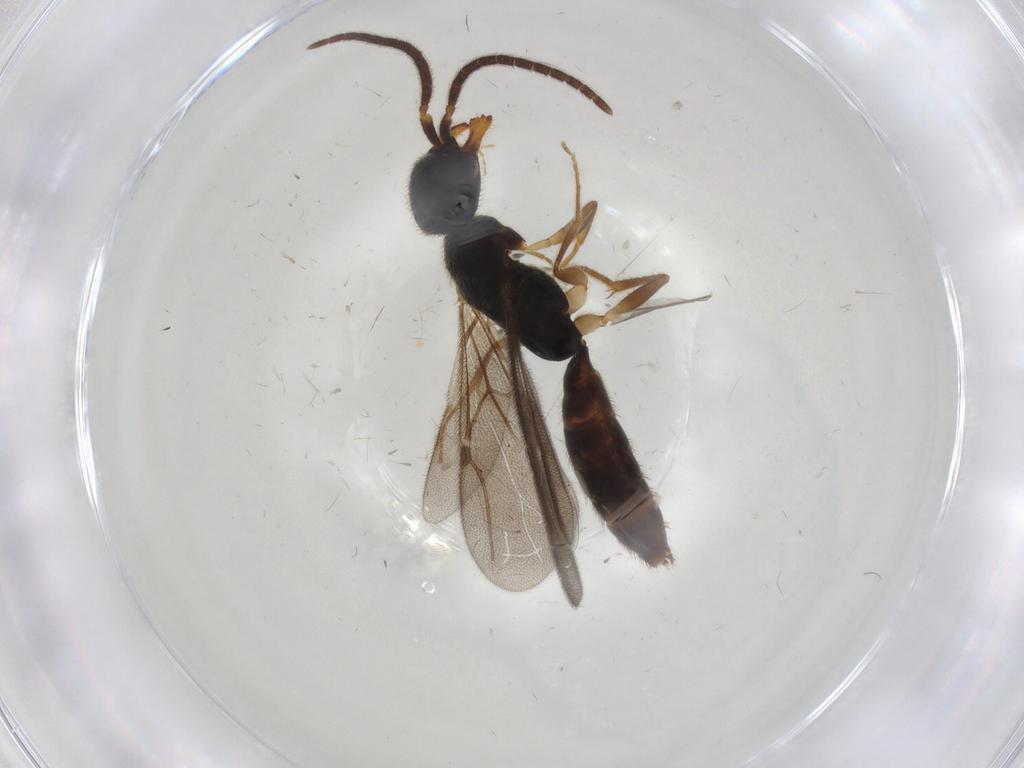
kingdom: Animalia
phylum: Arthropoda
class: Insecta
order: Hymenoptera
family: Bethylidae
